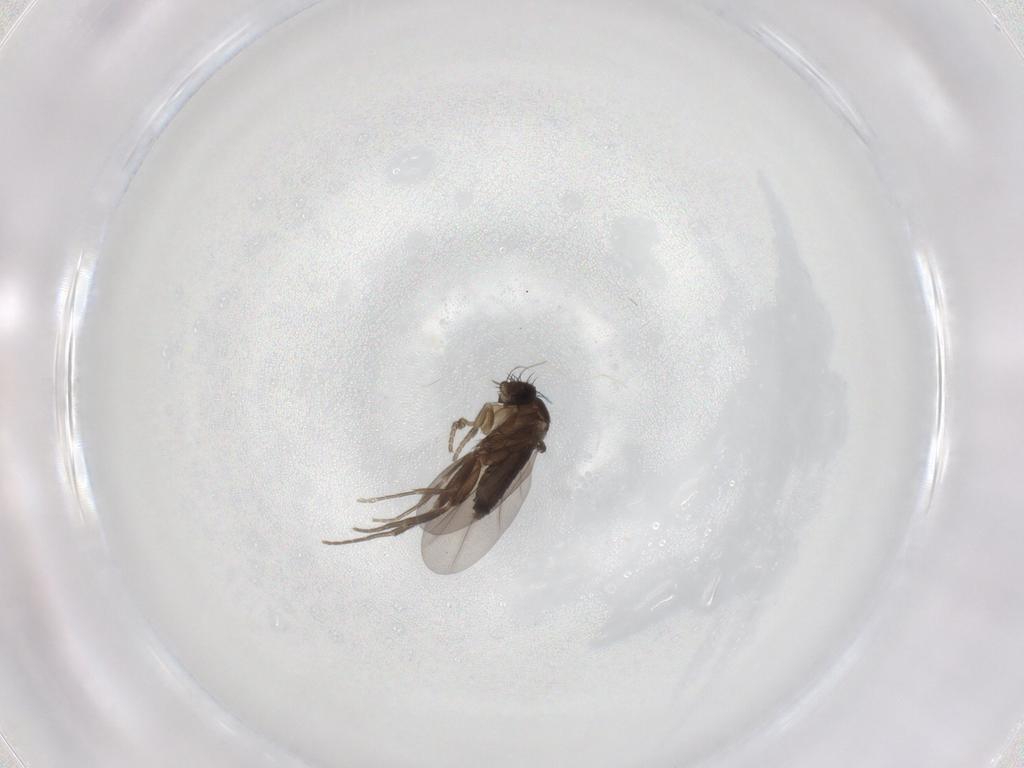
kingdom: Animalia
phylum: Arthropoda
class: Insecta
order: Diptera
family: Phoridae
